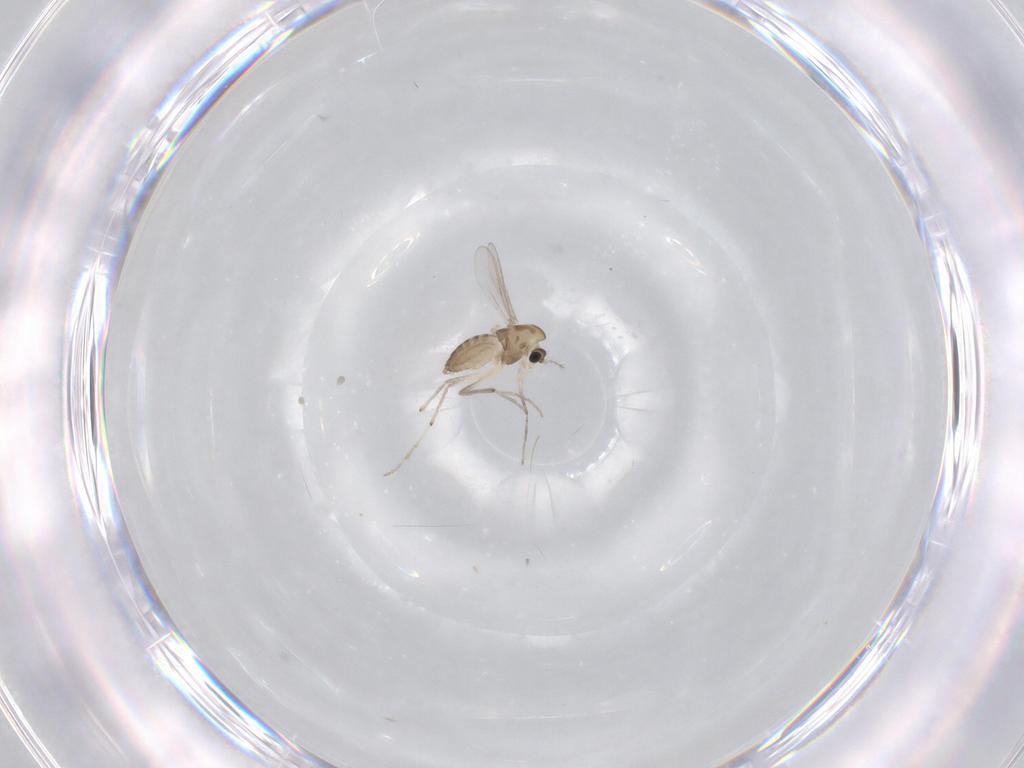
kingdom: Animalia
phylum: Arthropoda
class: Insecta
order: Diptera
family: Chironomidae
